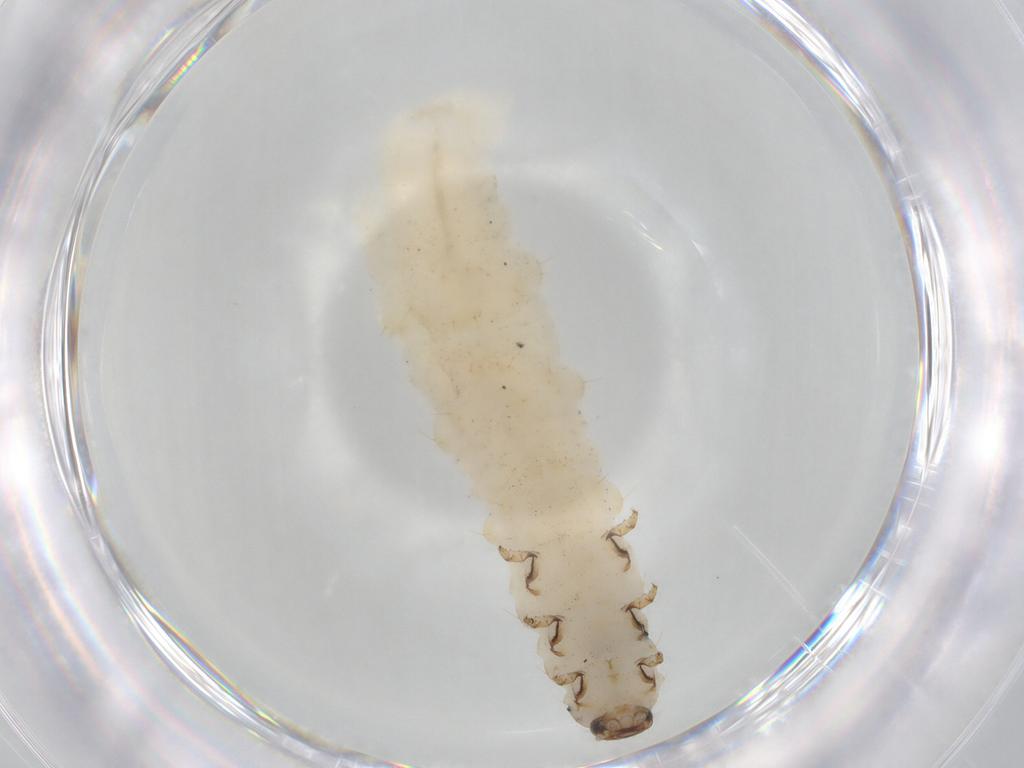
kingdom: Animalia
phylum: Arthropoda
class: Insecta
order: Coleoptera
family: Chrysomelidae
